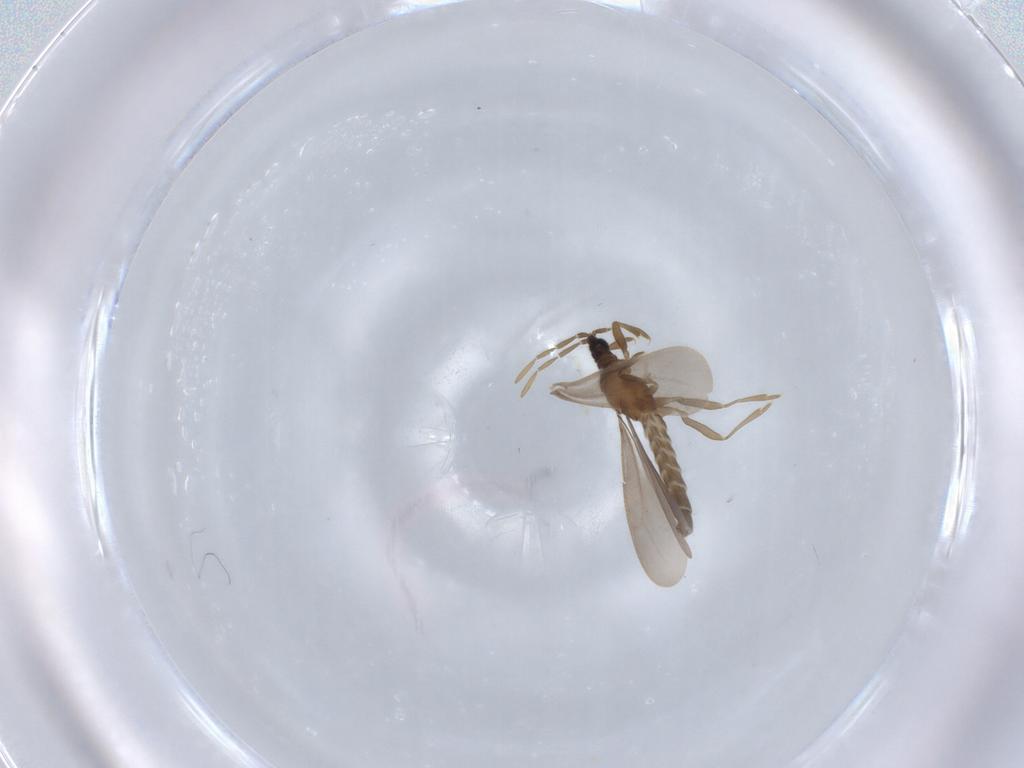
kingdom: Animalia
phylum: Arthropoda
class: Insecta
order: Hemiptera
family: Enicocephalidae
